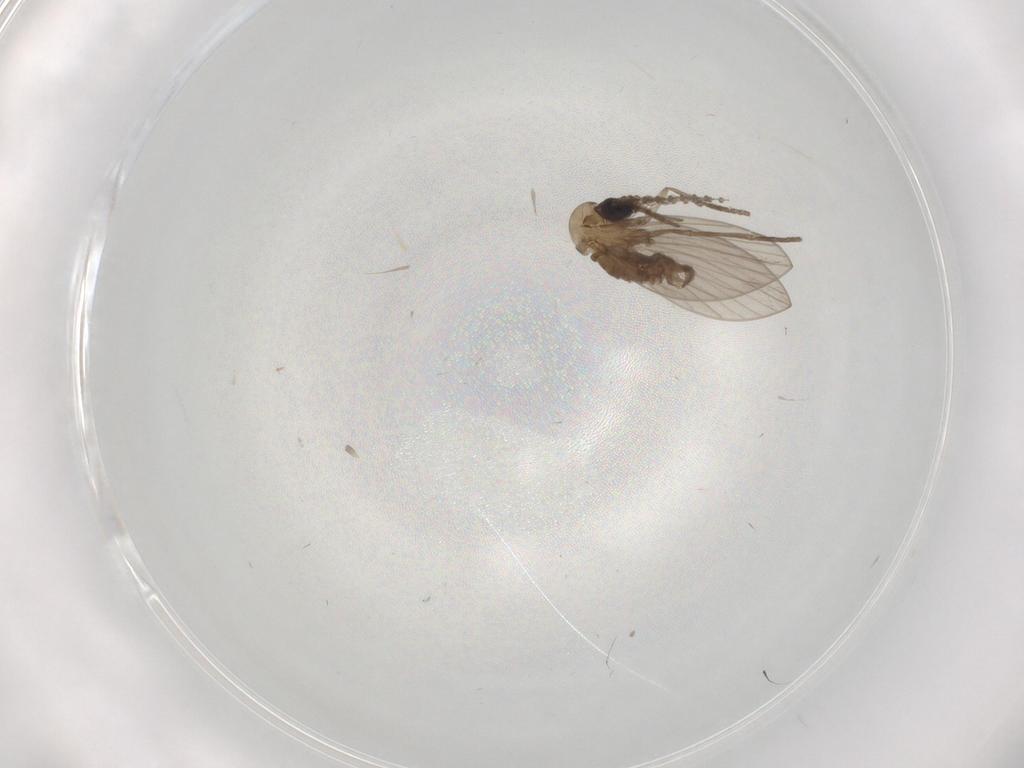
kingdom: Animalia
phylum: Arthropoda
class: Insecta
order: Diptera
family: Psychodidae
